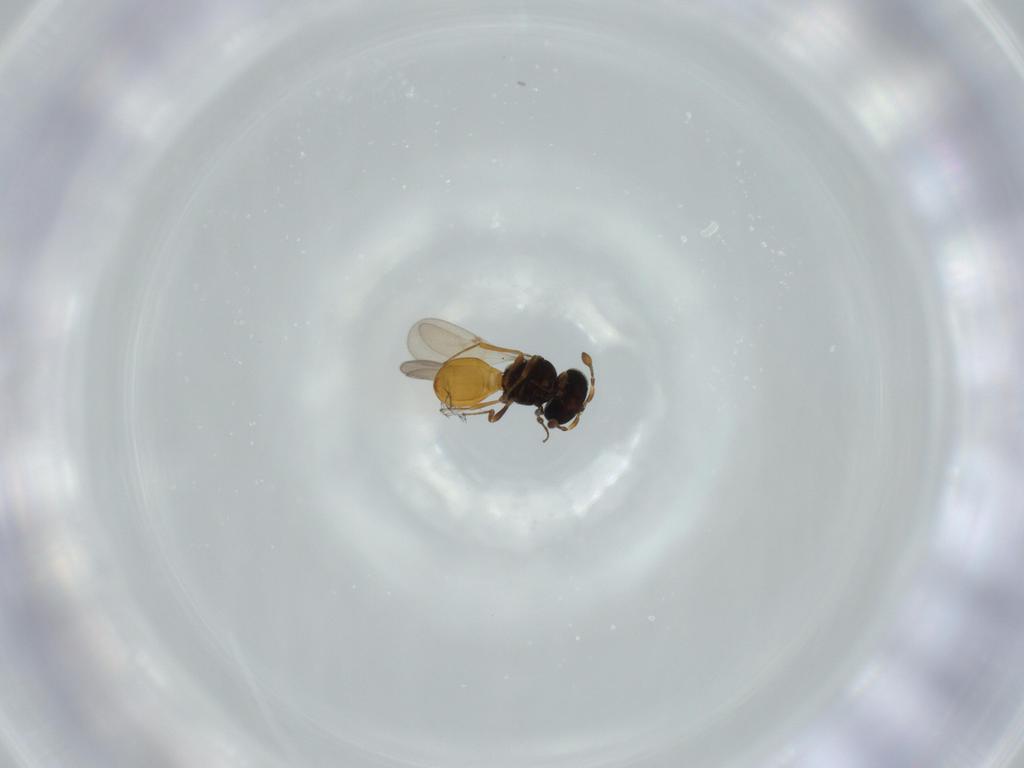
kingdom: Animalia
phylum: Arthropoda
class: Insecta
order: Hymenoptera
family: Scelionidae
